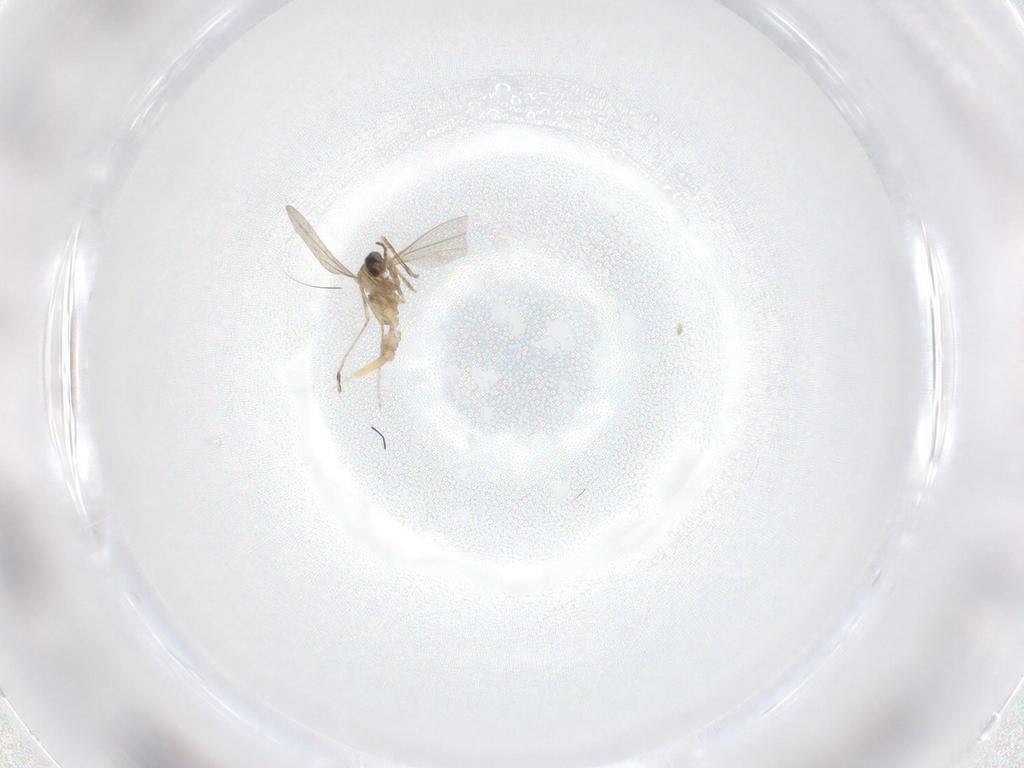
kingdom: Animalia
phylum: Arthropoda
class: Insecta
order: Diptera
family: Cecidomyiidae
